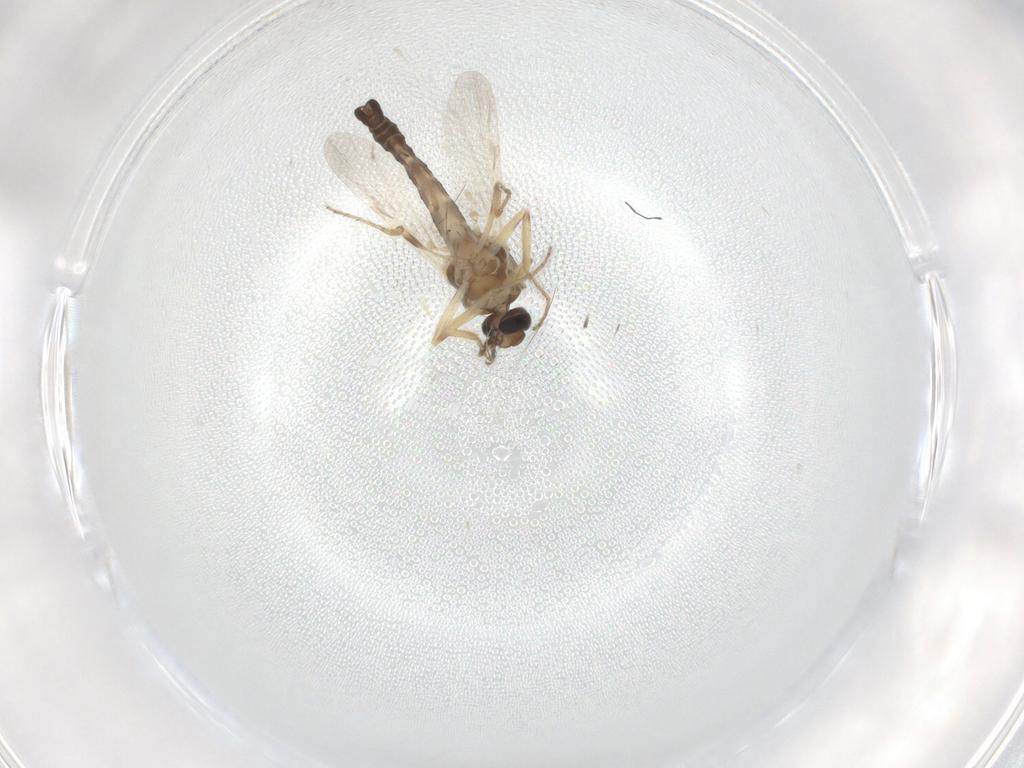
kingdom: Animalia
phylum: Arthropoda
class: Insecta
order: Diptera
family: Ceratopogonidae
